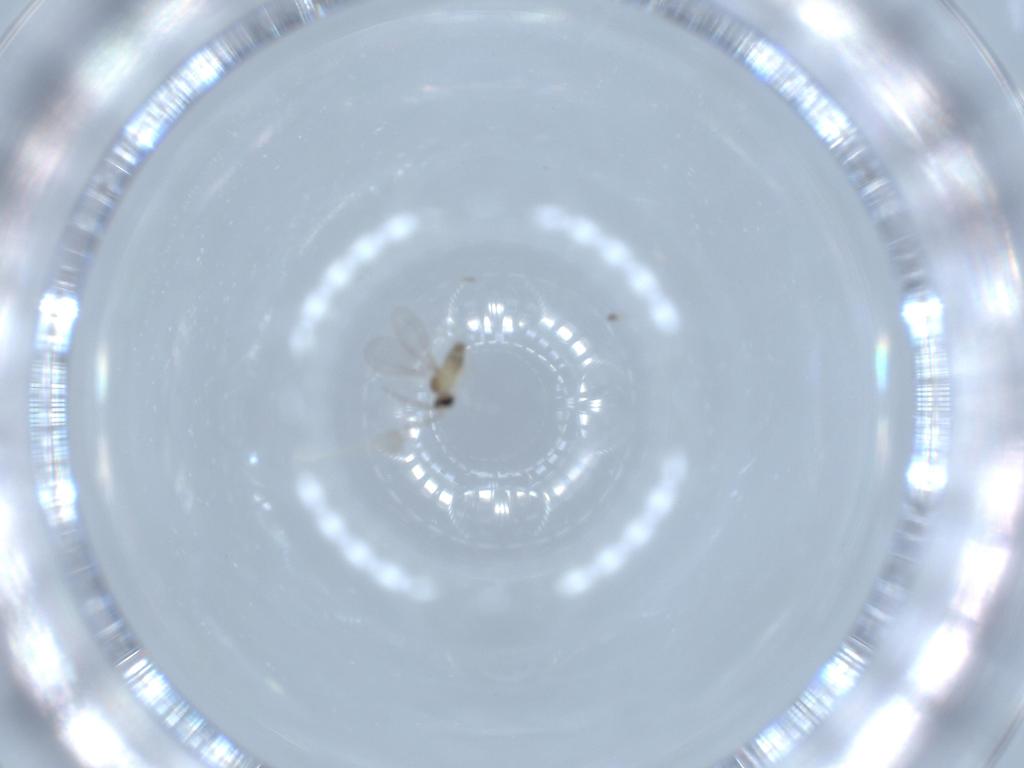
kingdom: Animalia
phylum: Arthropoda
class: Insecta
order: Diptera
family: Cecidomyiidae
